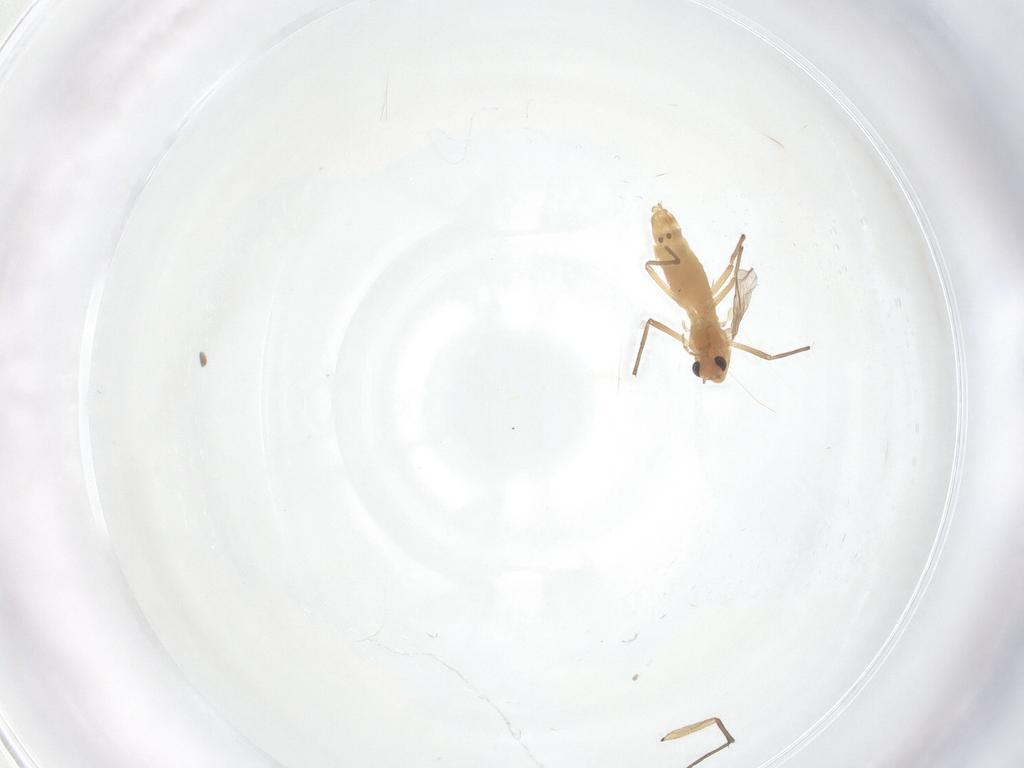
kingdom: Animalia
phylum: Arthropoda
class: Insecta
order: Diptera
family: Chironomidae
